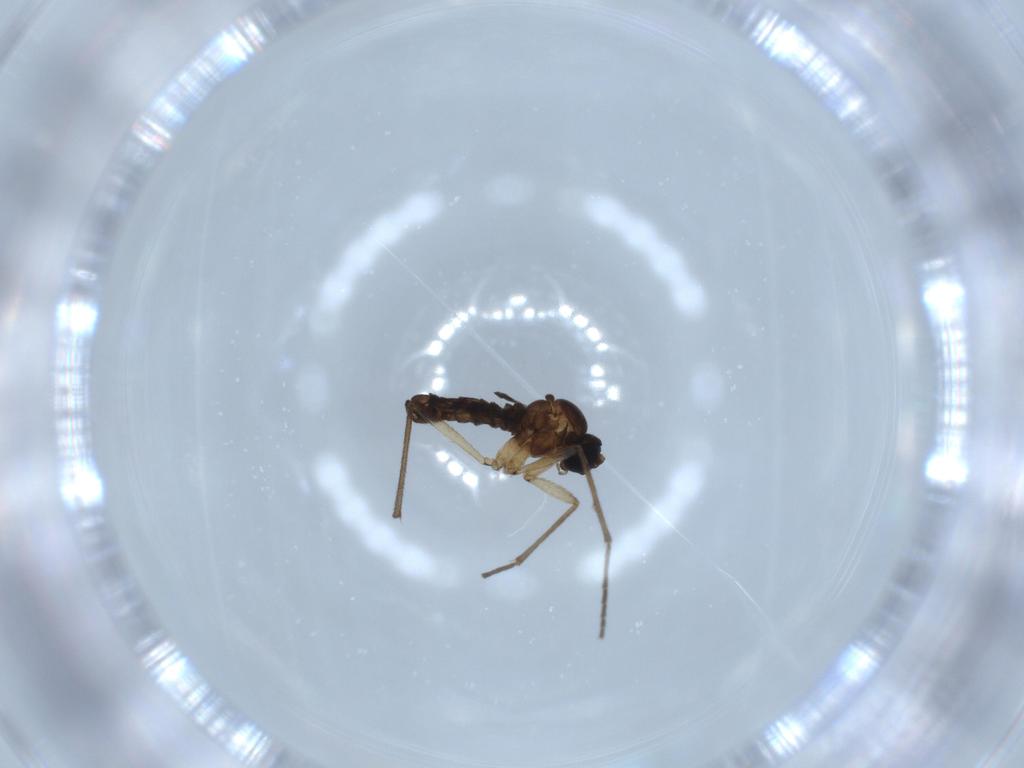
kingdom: Animalia
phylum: Arthropoda
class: Insecta
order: Diptera
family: Sciaridae
